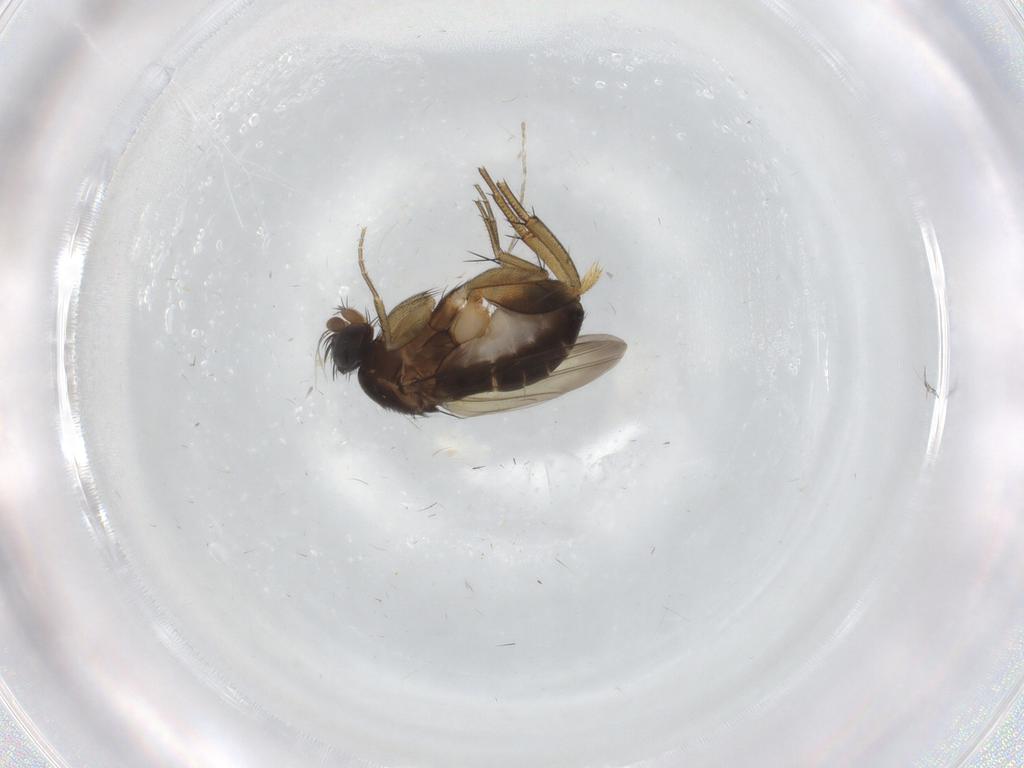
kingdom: Animalia
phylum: Arthropoda
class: Insecta
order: Diptera
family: Phoridae
